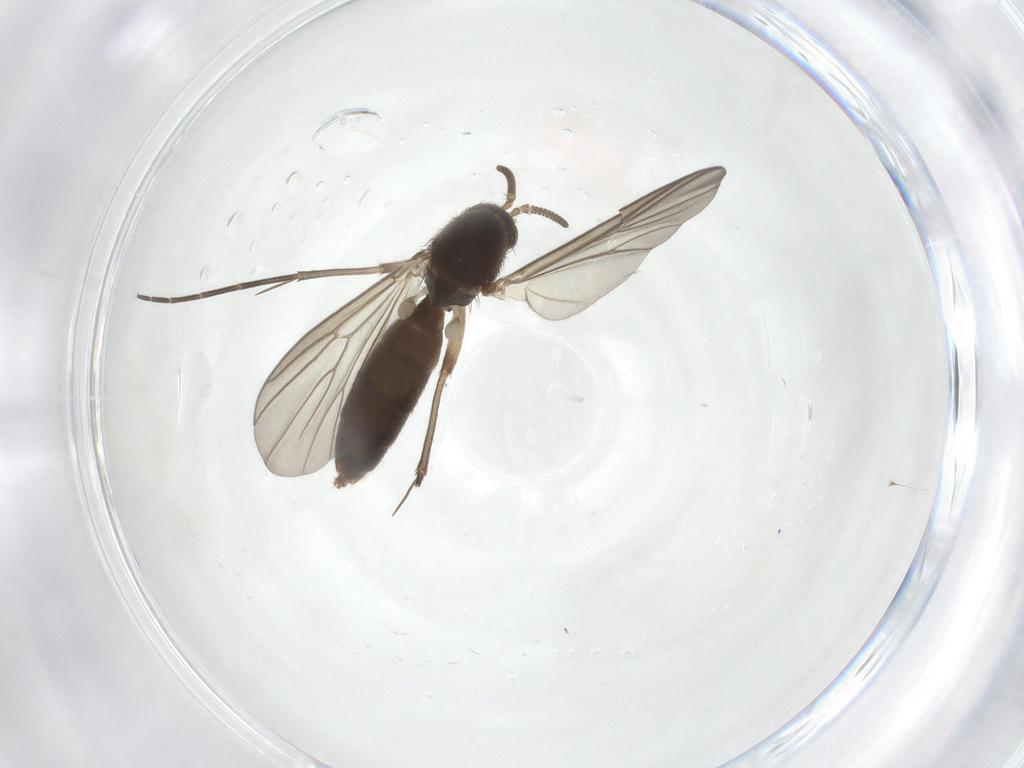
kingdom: Animalia
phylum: Arthropoda
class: Insecta
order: Diptera
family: Mycetophilidae
